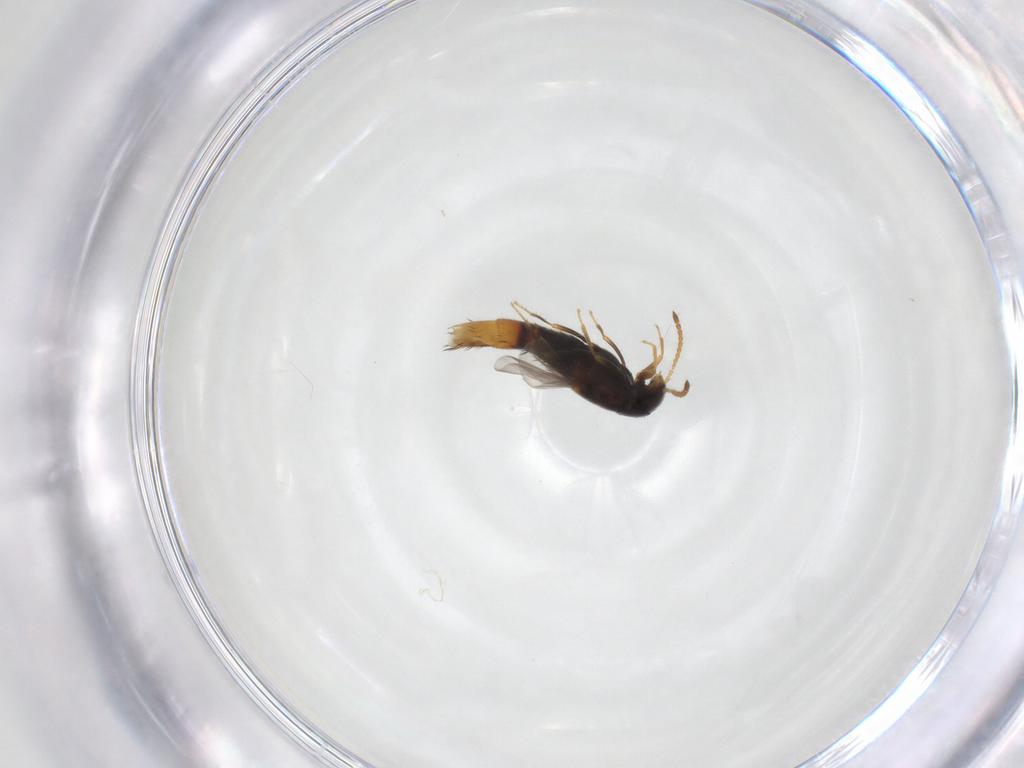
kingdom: Animalia
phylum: Arthropoda
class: Insecta
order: Coleoptera
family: Staphylinidae
